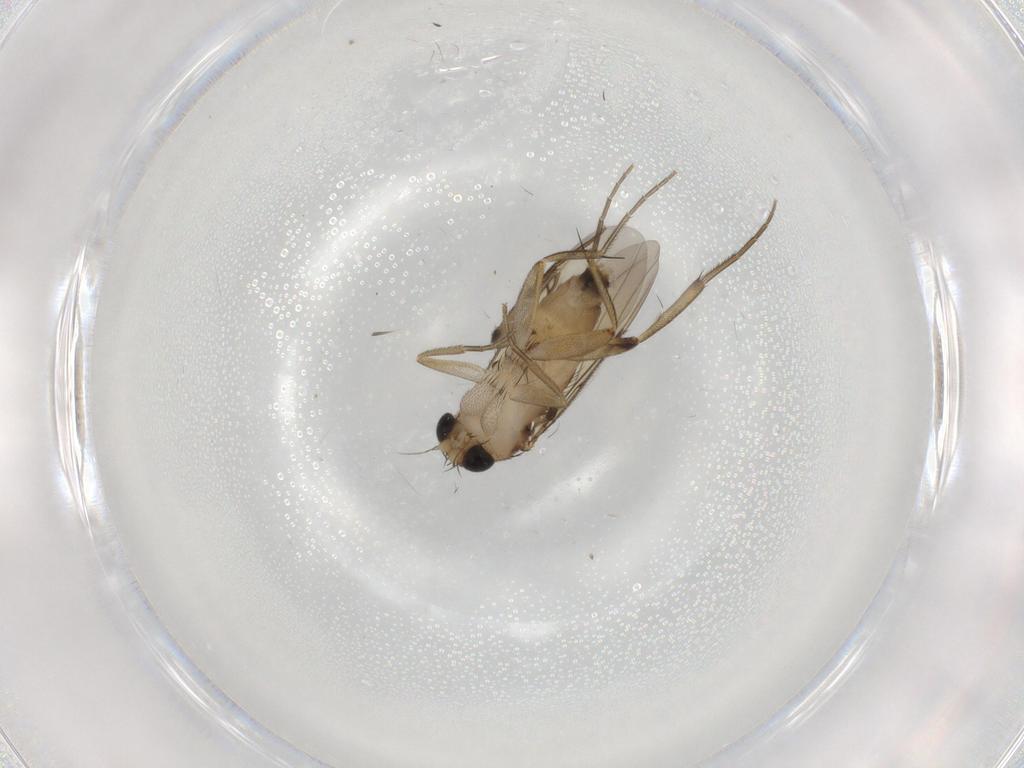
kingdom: Animalia
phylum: Arthropoda
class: Insecta
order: Diptera
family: Phoridae
